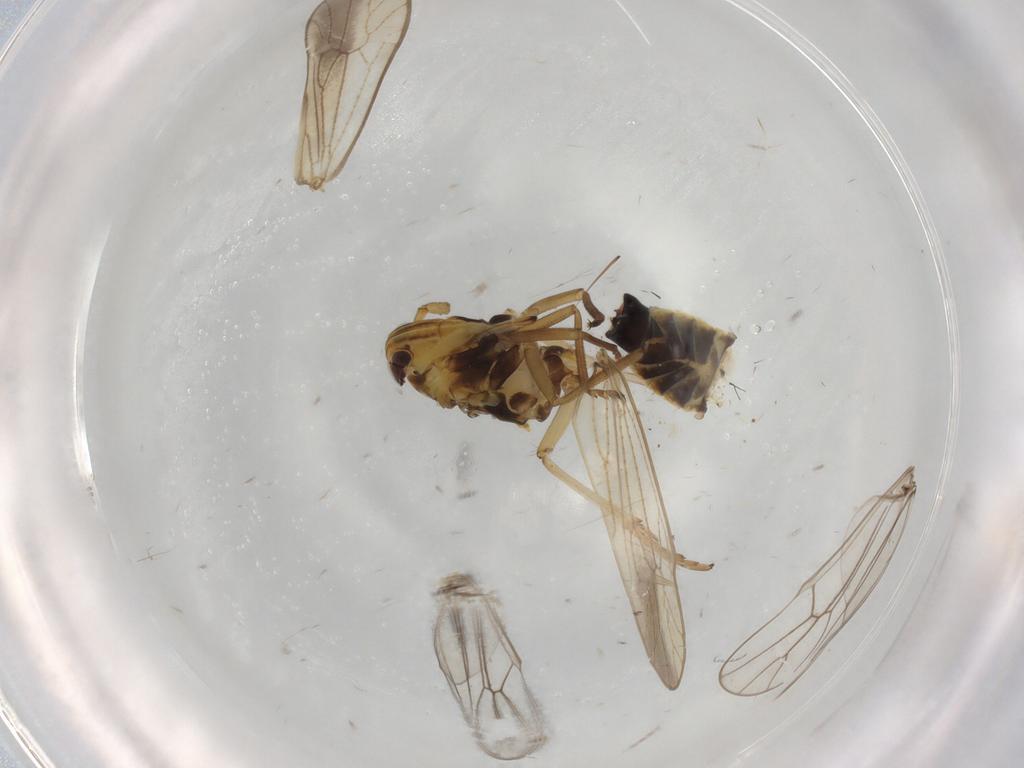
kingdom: Animalia
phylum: Arthropoda
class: Insecta
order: Hemiptera
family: Delphacidae
